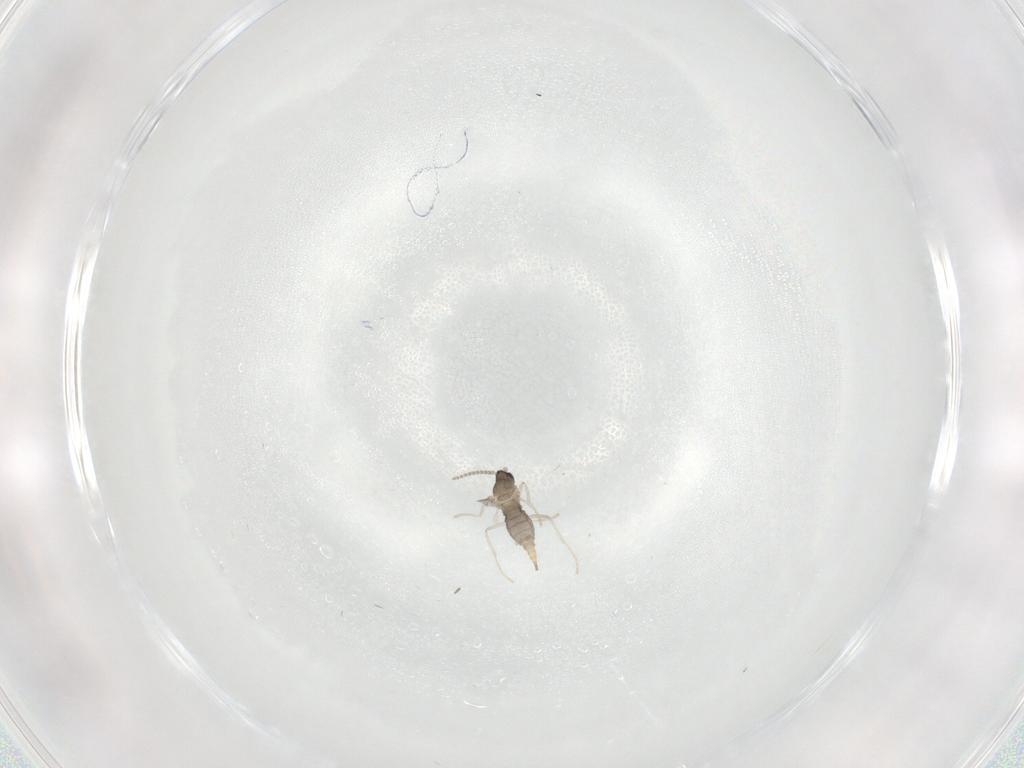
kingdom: Animalia
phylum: Arthropoda
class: Insecta
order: Diptera
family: Cecidomyiidae
